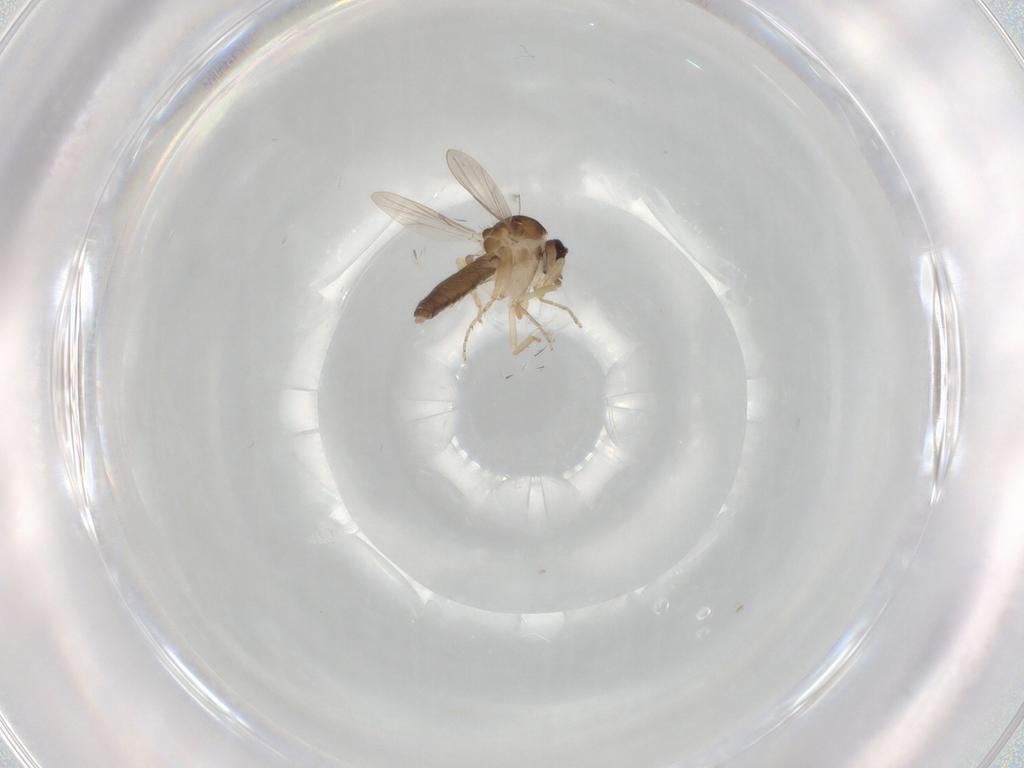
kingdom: Animalia
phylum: Arthropoda
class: Insecta
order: Diptera
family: Ceratopogonidae
